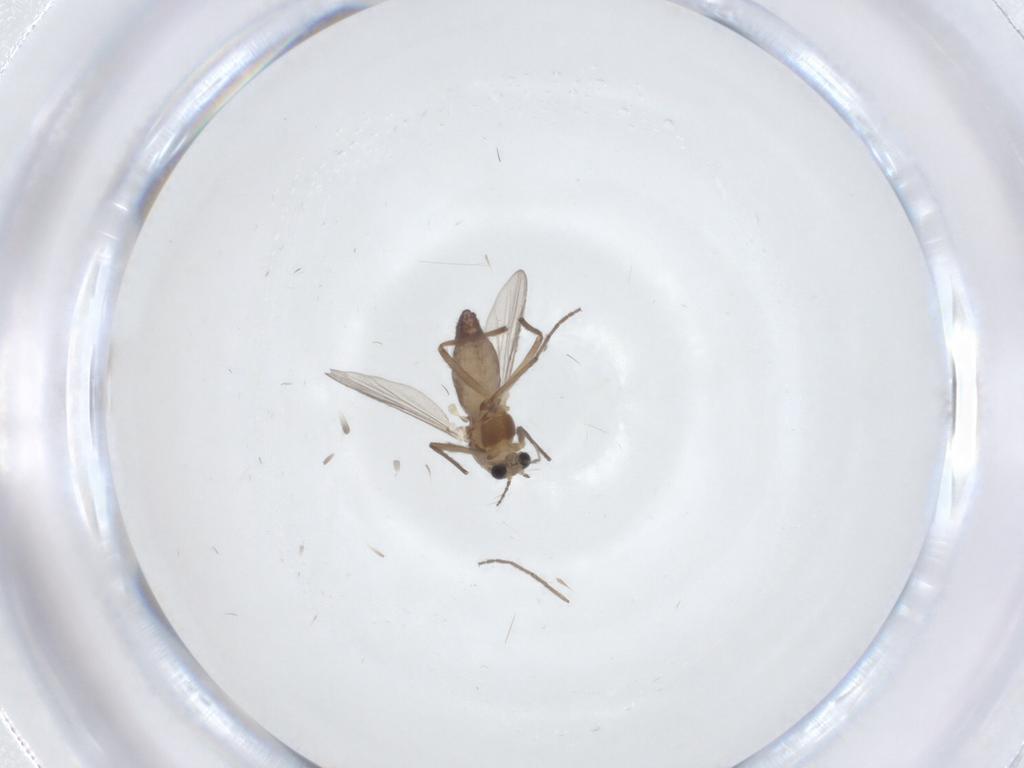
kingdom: Animalia
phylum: Arthropoda
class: Insecta
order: Diptera
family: Chironomidae
